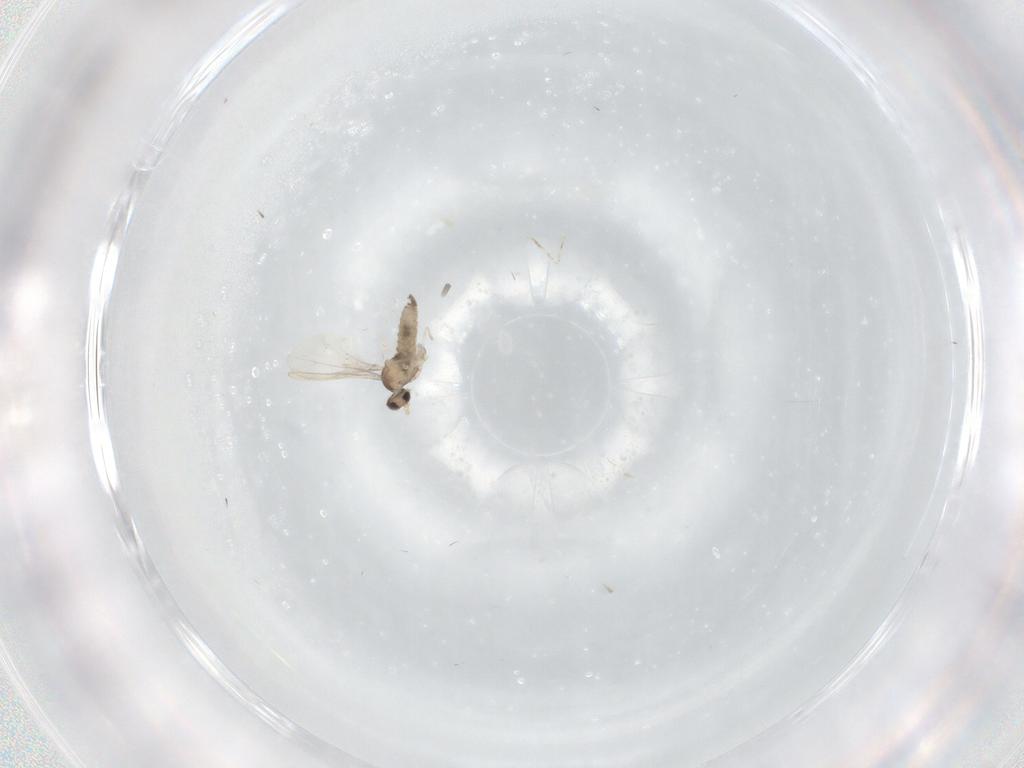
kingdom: Animalia
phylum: Arthropoda
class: Insecta
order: Diptera
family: Cecidomyiidae
